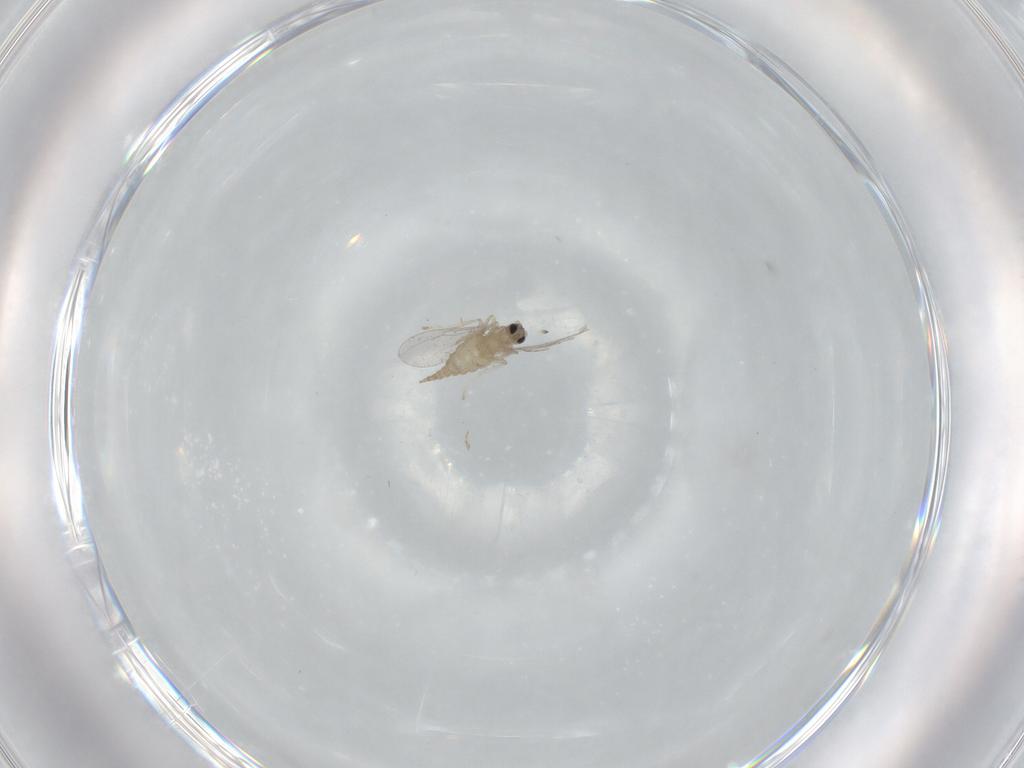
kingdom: Animalia
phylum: Arthropoda
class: Insecta
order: Diptera
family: Cecidomyiidae
